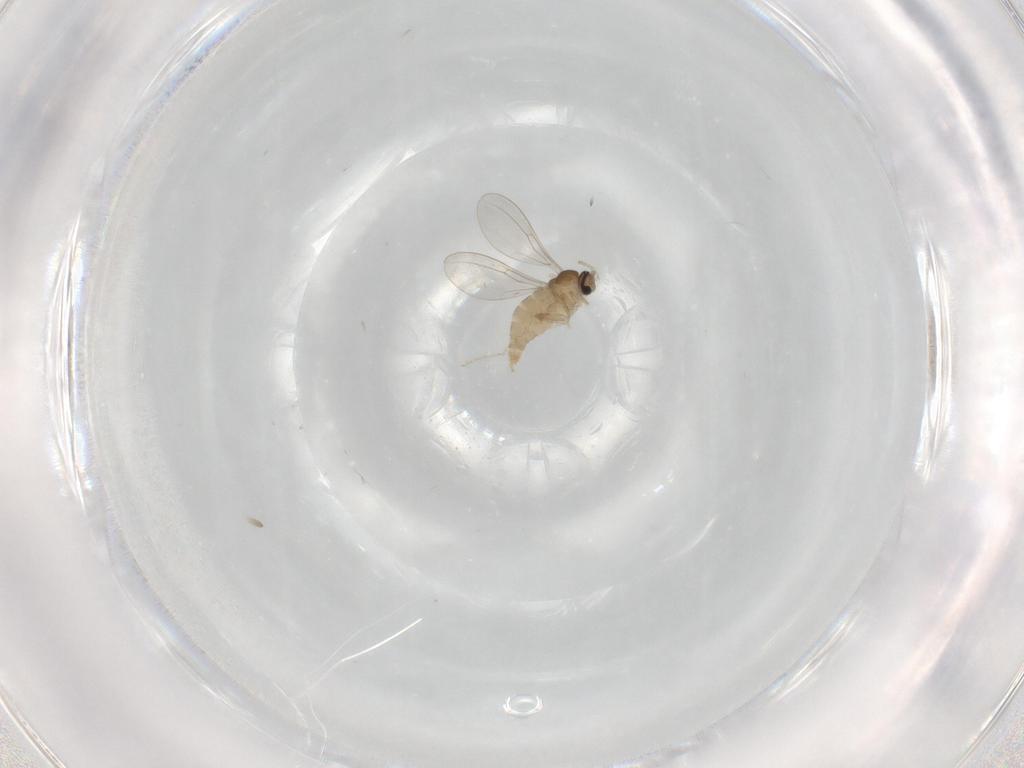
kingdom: Animalia
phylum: Arthropoda
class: Insecta
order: Diptera
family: Cecidomyiidae
